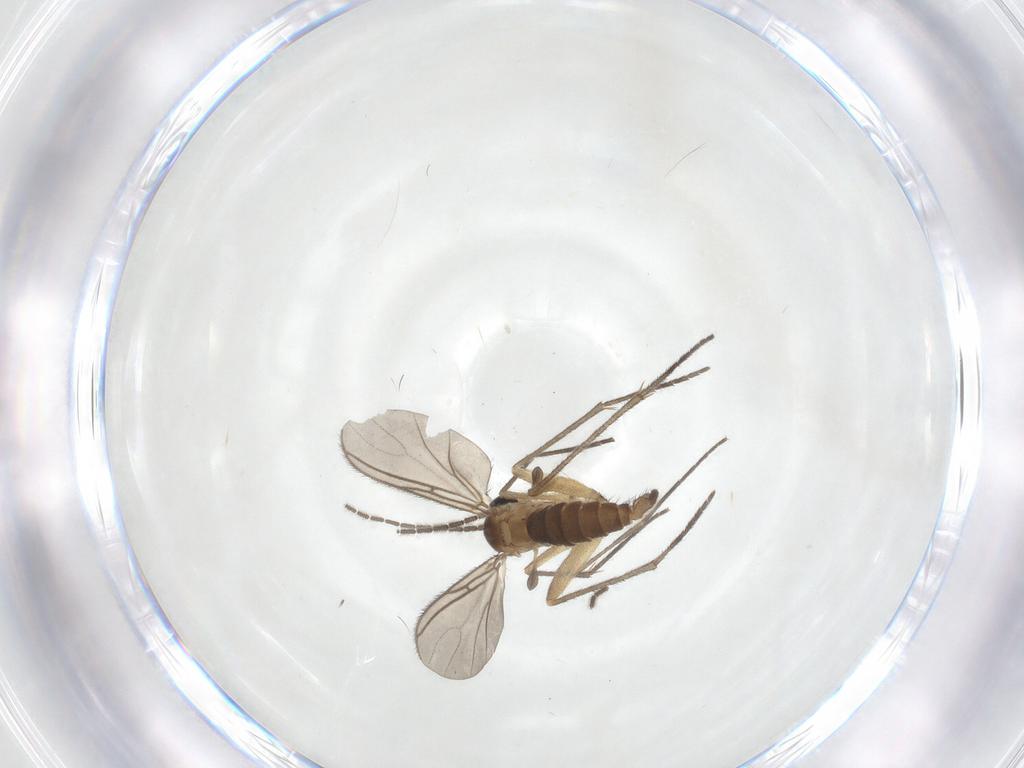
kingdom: Animalia
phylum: Arthropoda
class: Insecta
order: Diptera
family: Sciaridae
